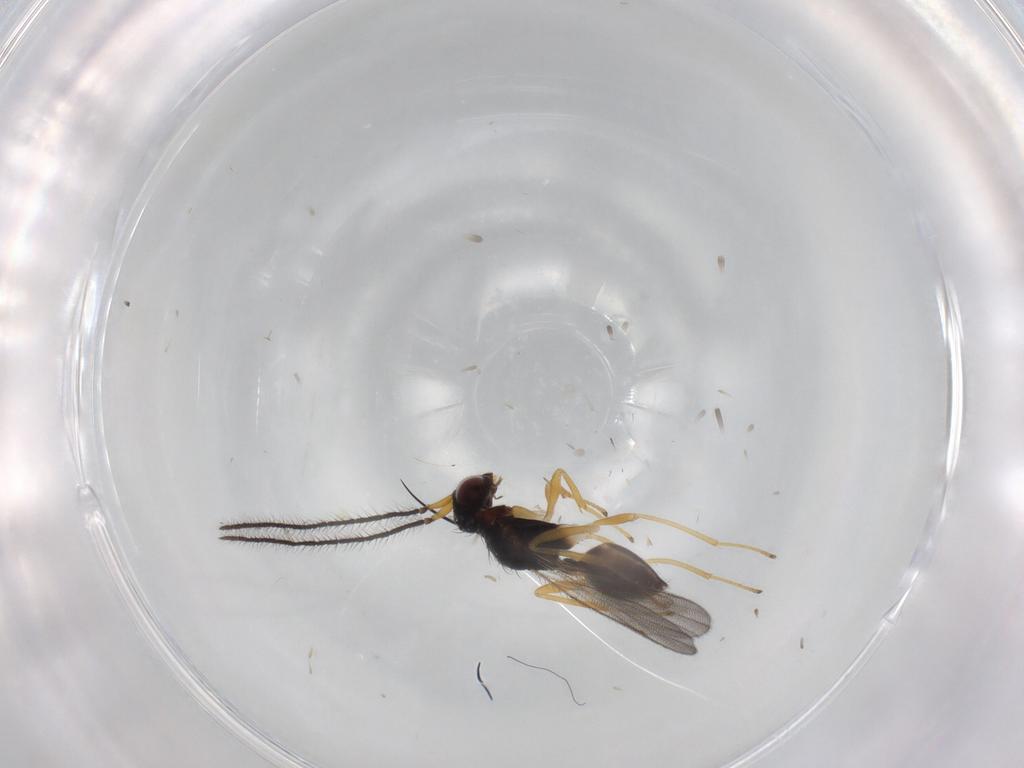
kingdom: Animalia
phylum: Arthropoda
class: Insecta
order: Hymenoptera
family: Diparidae
